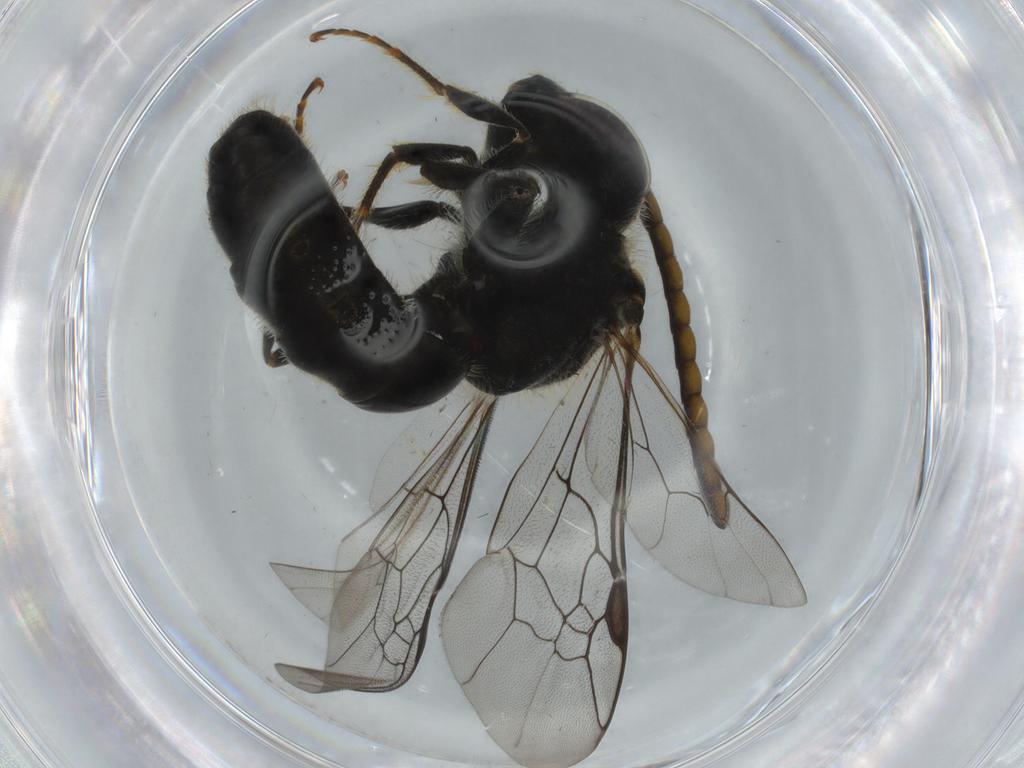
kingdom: Animalia
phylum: Arthropoda
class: Insecta
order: Hymenoptera
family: Halictidae
